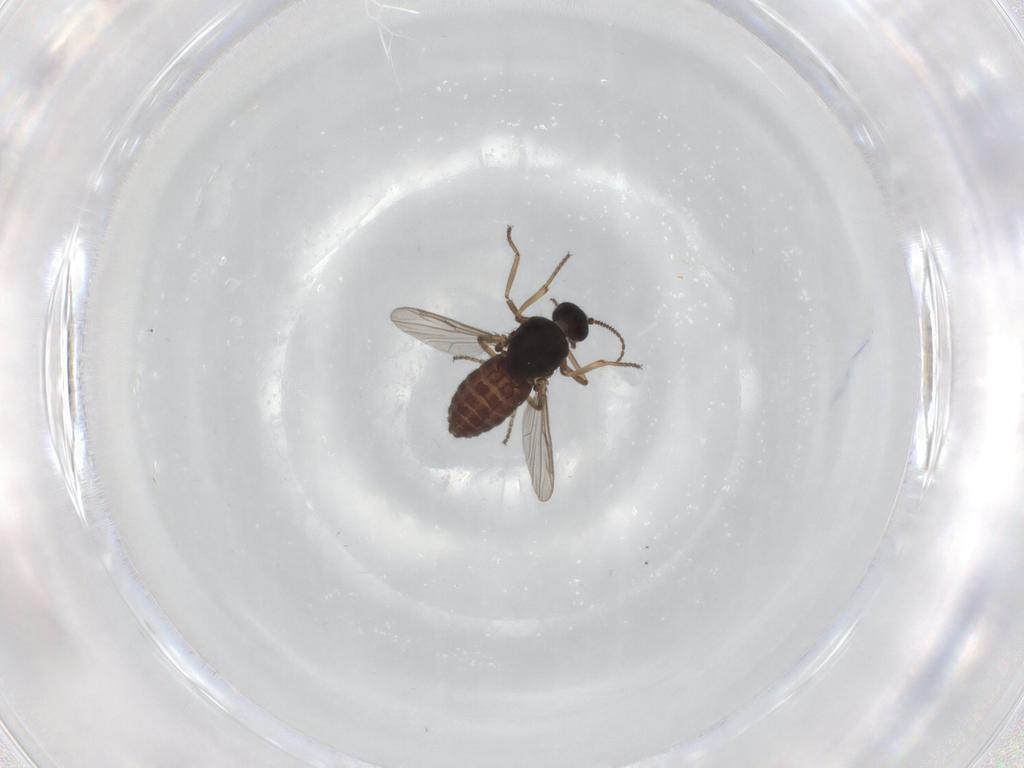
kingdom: Animalia
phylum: Arthropoda
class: Insecta
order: Diptera
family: Ceratopogonidae
